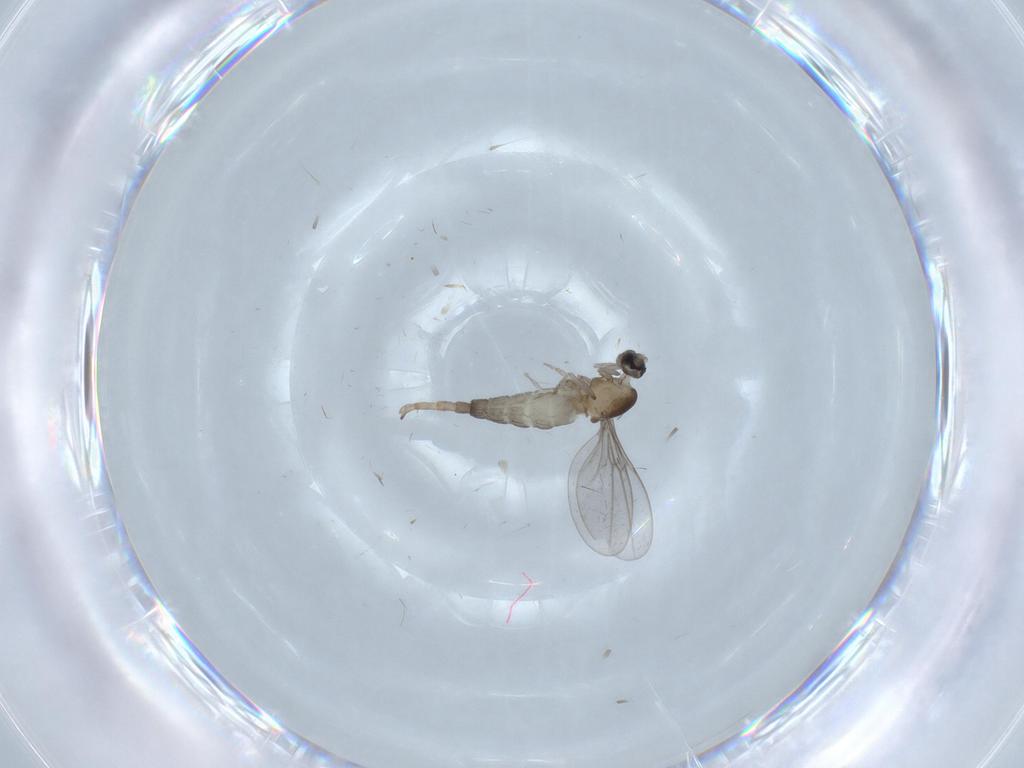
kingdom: Animalia
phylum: Arthropoda
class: Insecta
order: Diptera
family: Cecidomyiidae
